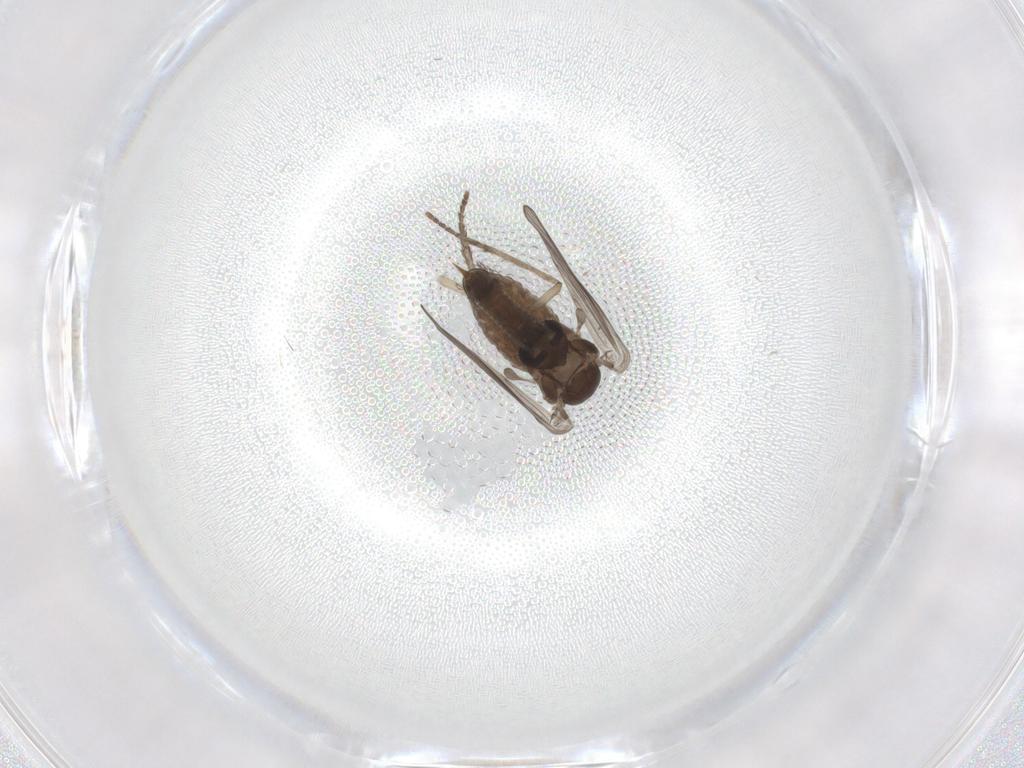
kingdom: Animalia
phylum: Arthropoda
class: Insecta
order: Diptera
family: Psychodidae
